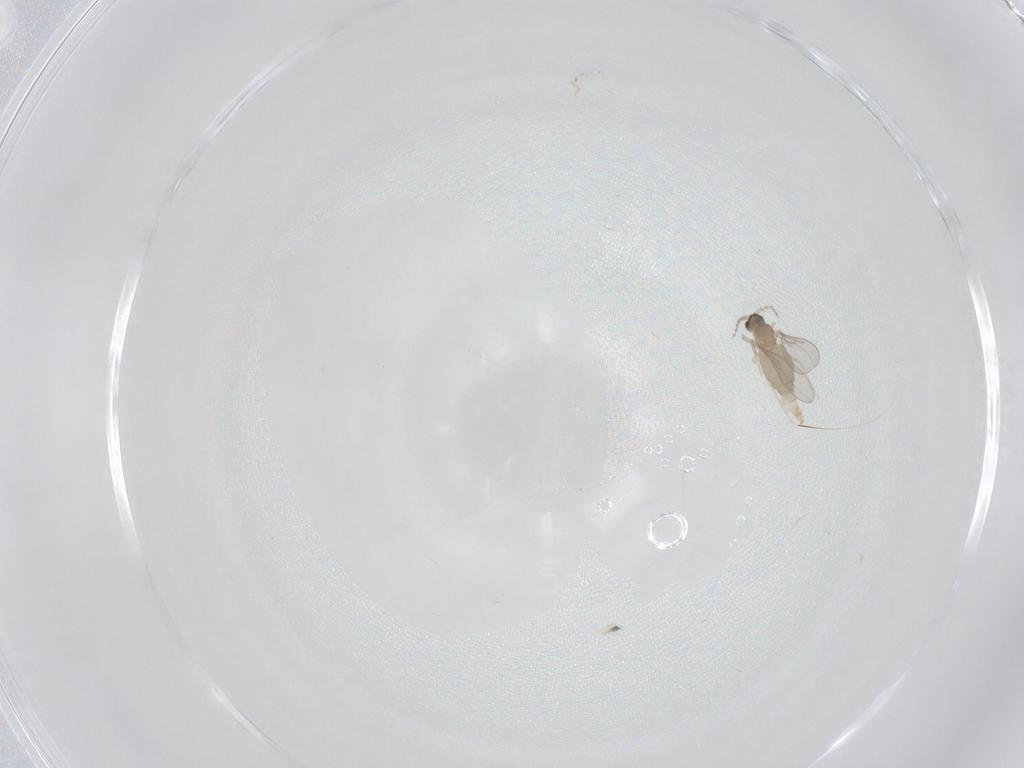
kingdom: Animalia
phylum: Arthropoda
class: Insecta
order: Diptera
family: Cecidomyiidae
